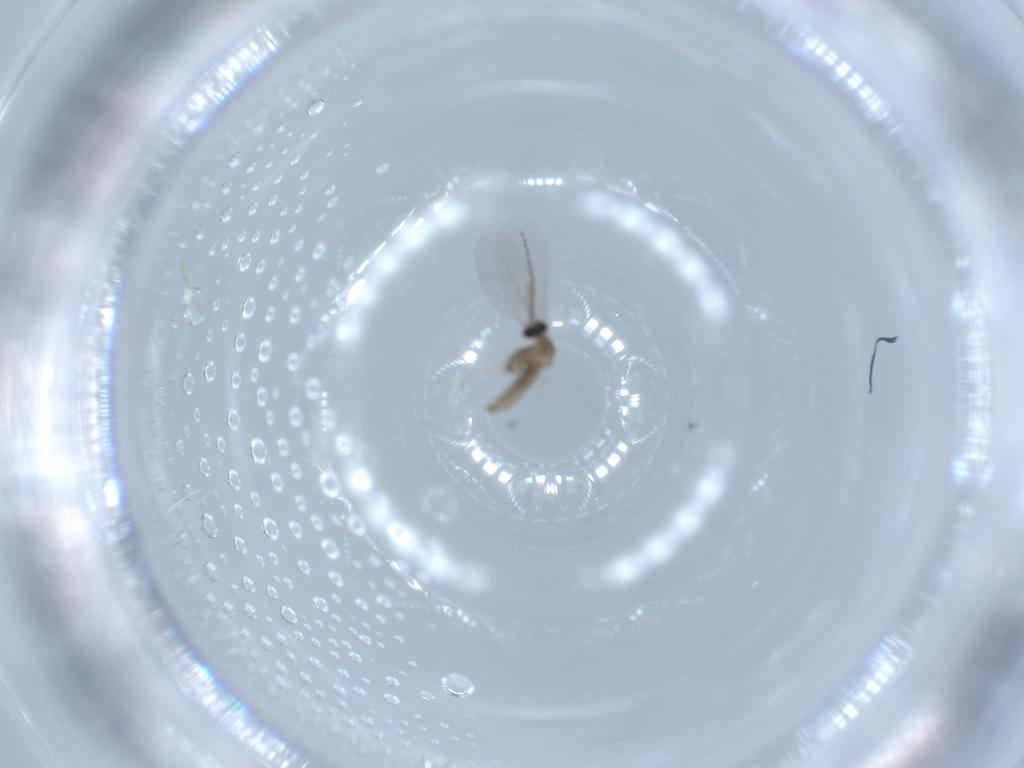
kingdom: Animalia
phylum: Arthropoda
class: Insecta
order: Diptera
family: Cecidomyiidae
